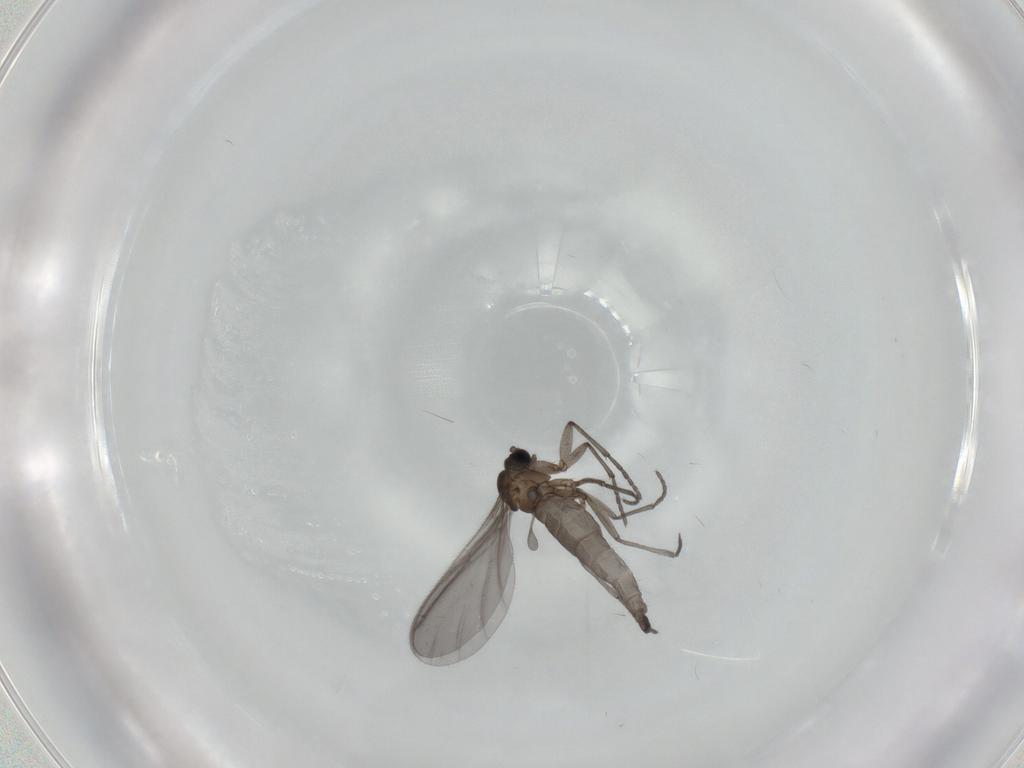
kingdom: Animalia
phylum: Arthropoda
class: Insecta
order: Diptera
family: Sciaridae
